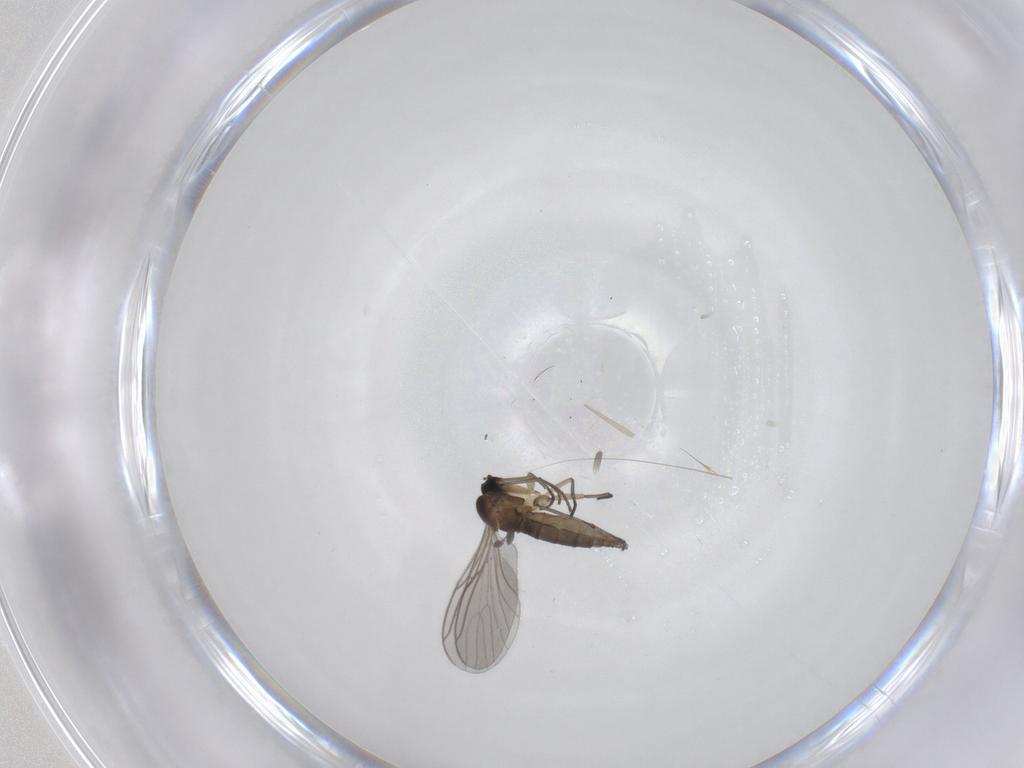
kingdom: Animalia
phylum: Arthropoda
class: Insecta
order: Diptera
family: Sciaridae
